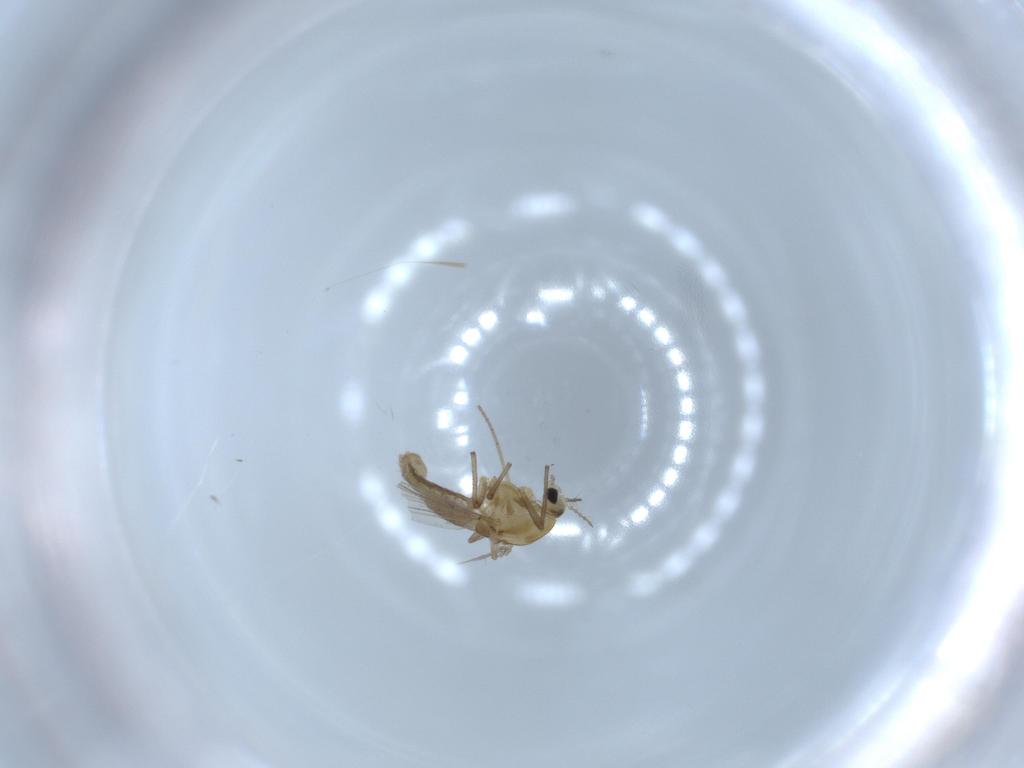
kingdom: Animalia
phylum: Arthropoda
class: Insecta
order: Diptera
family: Chironomidae
